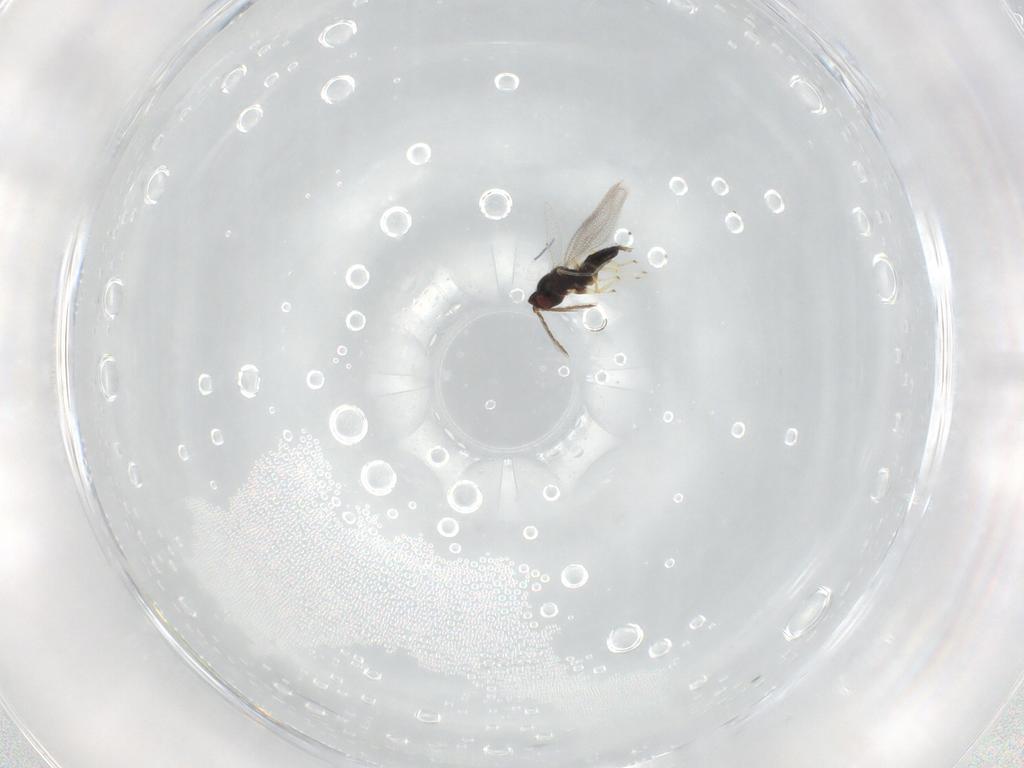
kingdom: Animalia
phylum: Arthropoda
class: Insecta
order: Hymenoptera
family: Eulophidae
